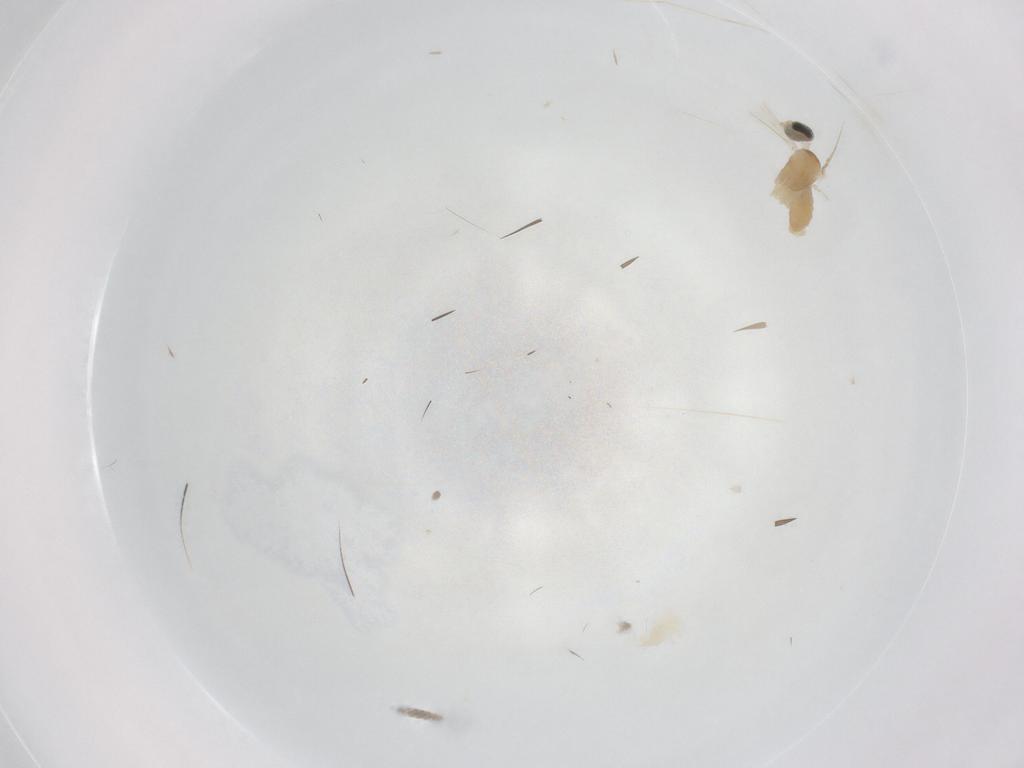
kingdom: Animalia
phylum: Arthropoda
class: Insecta
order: Diptera
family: Cecidomyiidae
